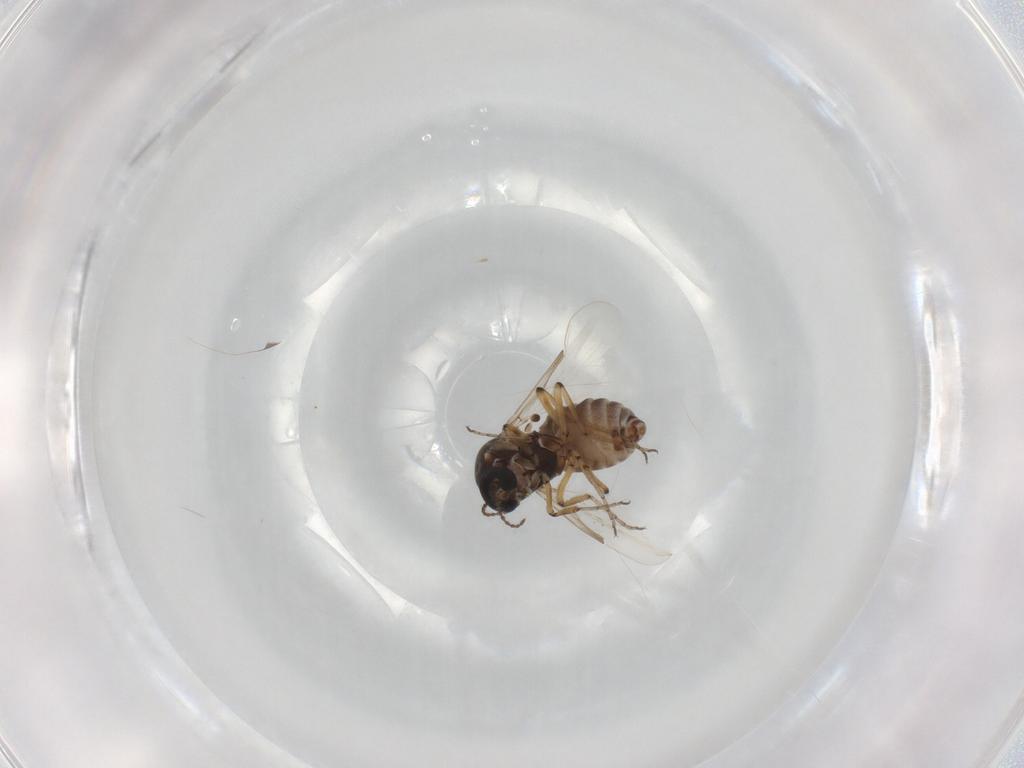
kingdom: Animalia
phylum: Arthropoda
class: Insecta
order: Diptera
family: Ceratopogonidae
